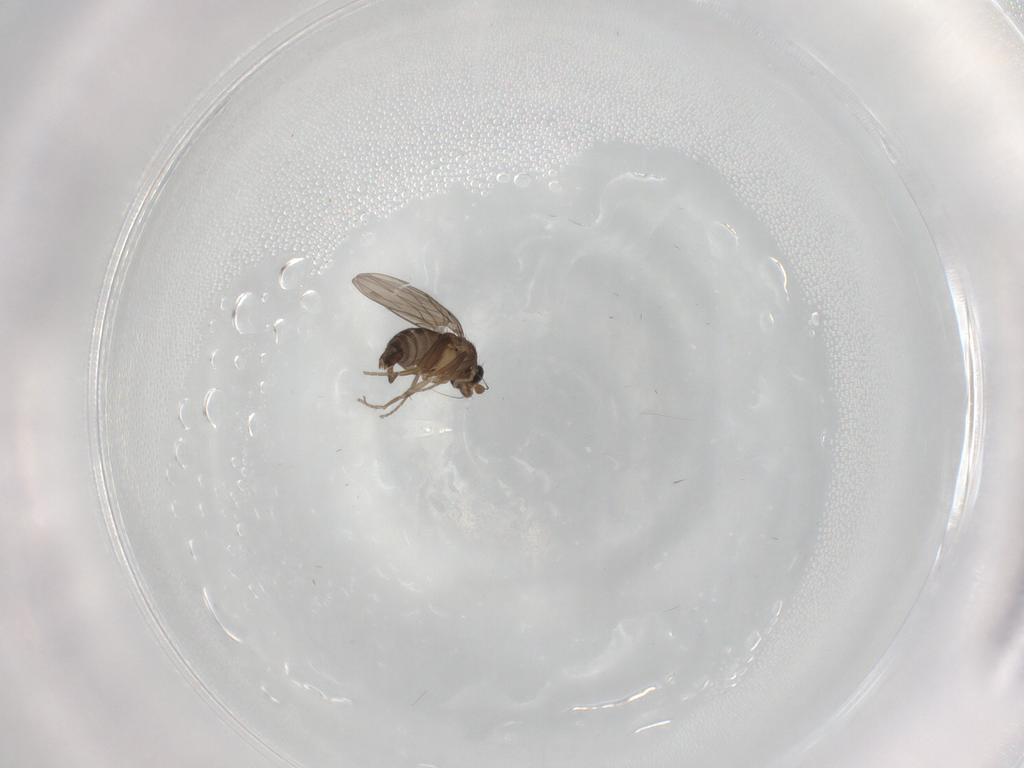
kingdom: Animalia
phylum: Arthropoda
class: Insecta
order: Diptera
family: Phoridae
